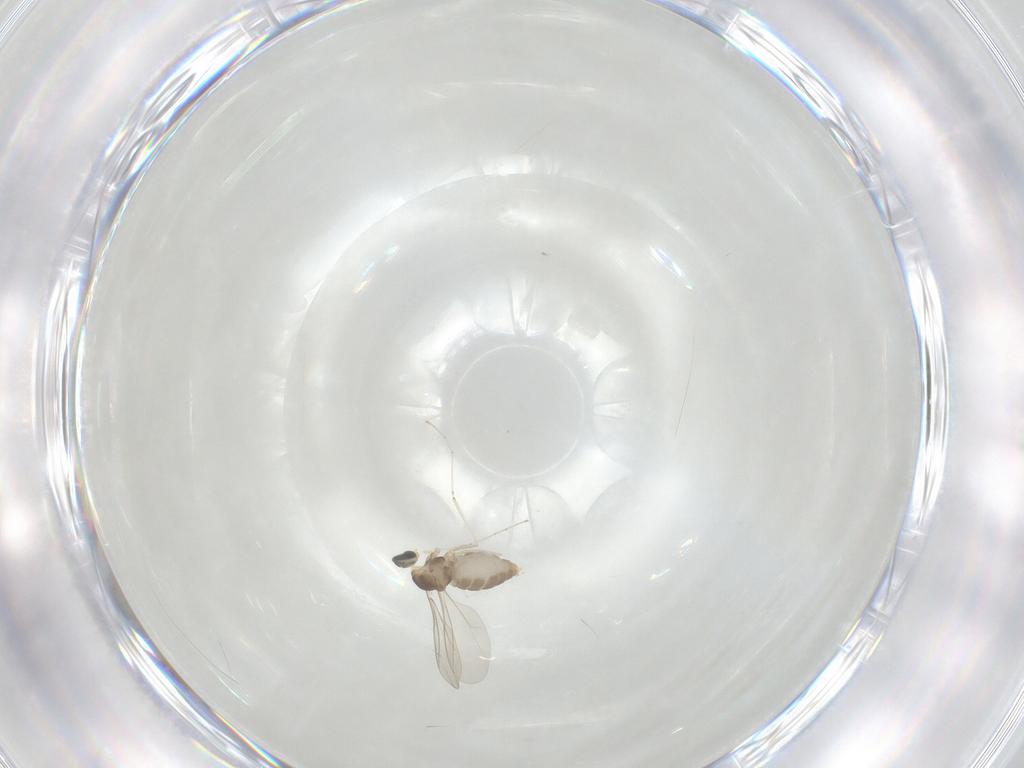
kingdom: Animalia
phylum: Arthropoda
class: Insecta
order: Diptera
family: Cecidomyiidae
